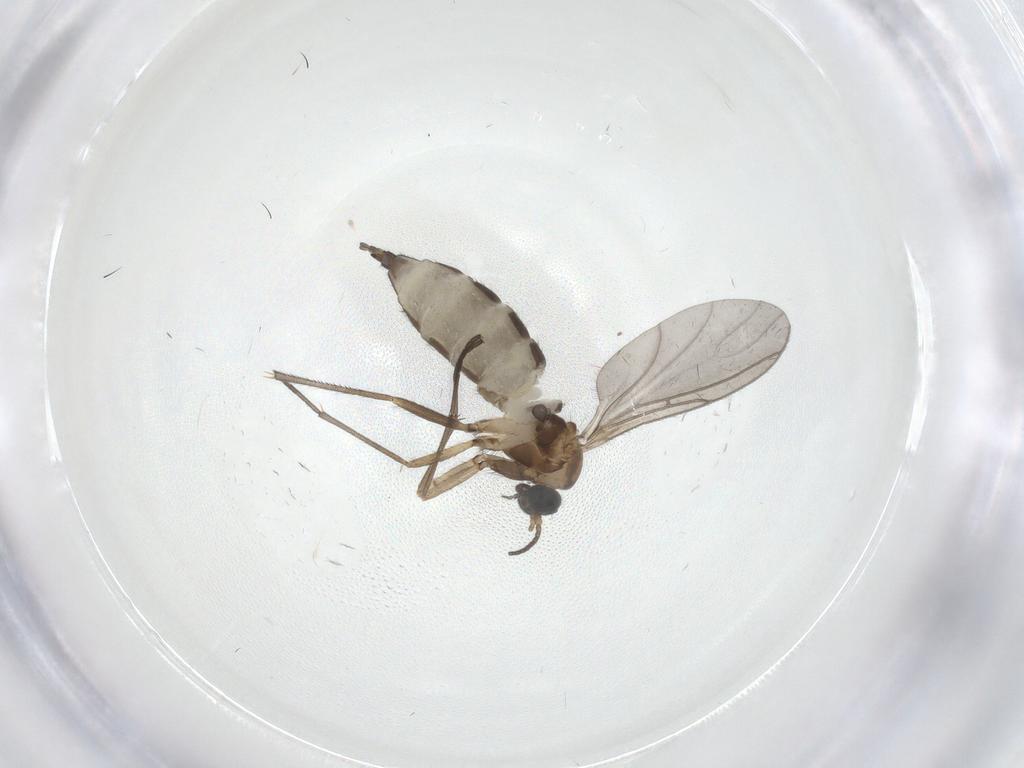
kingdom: Animalia
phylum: Arthropoda
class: Insecta
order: Diptera
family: Sciaridae
